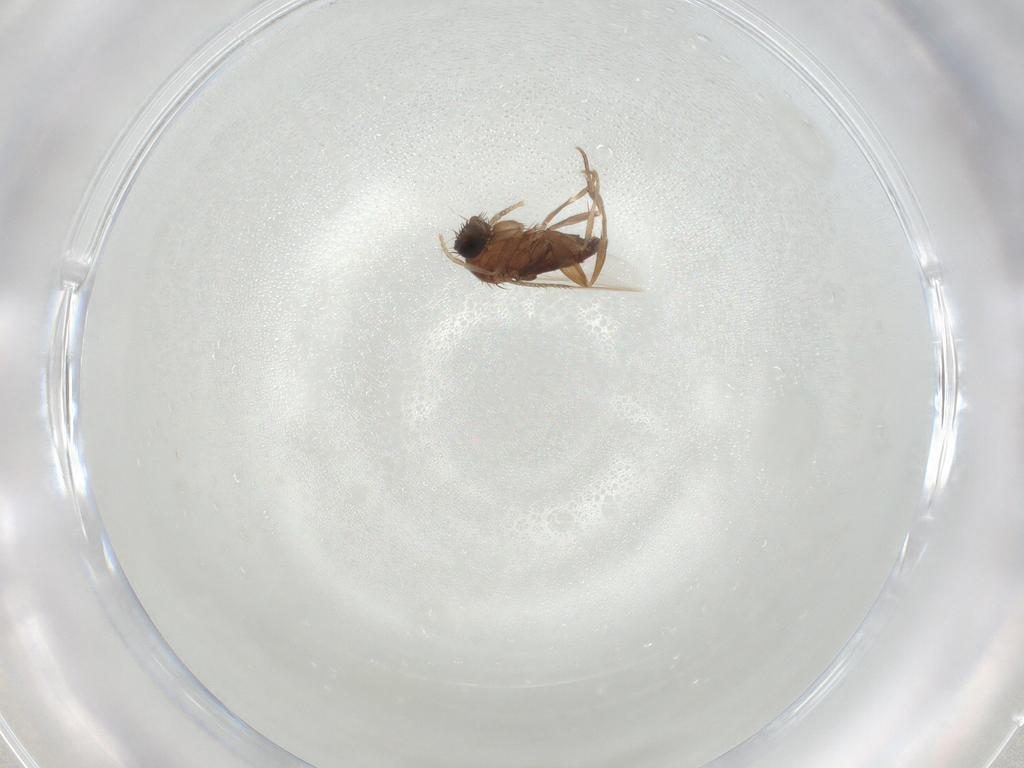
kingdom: Animalia
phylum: Arthropoda
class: Insecta
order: Diptera
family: Phoridae
